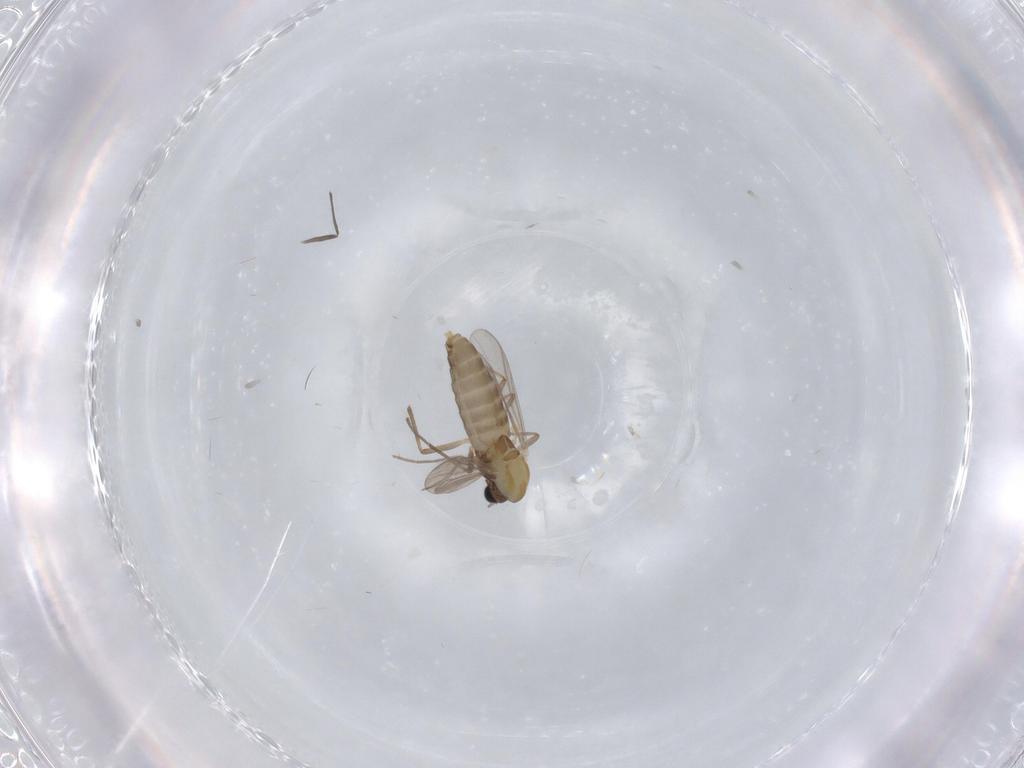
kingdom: Animalia
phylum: Arthropoda
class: Insecta
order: Diptera
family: Chironomidae
